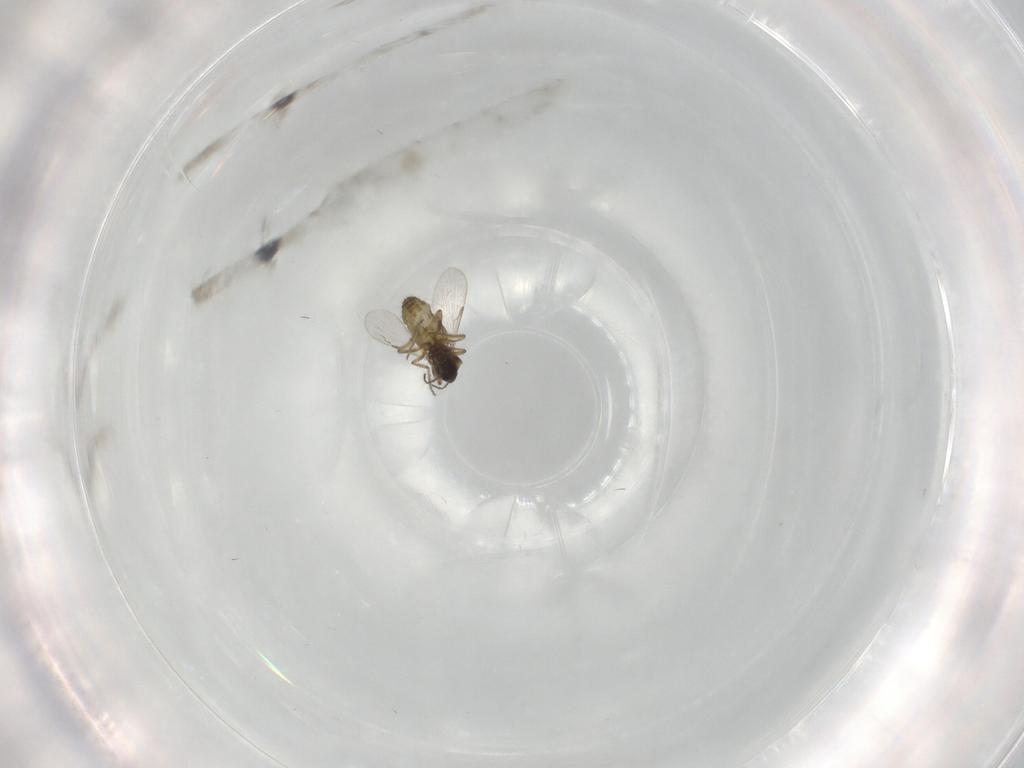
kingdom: Animalia
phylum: Arthropoda
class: Insecta
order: Diptera
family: Ceratopogonidae
